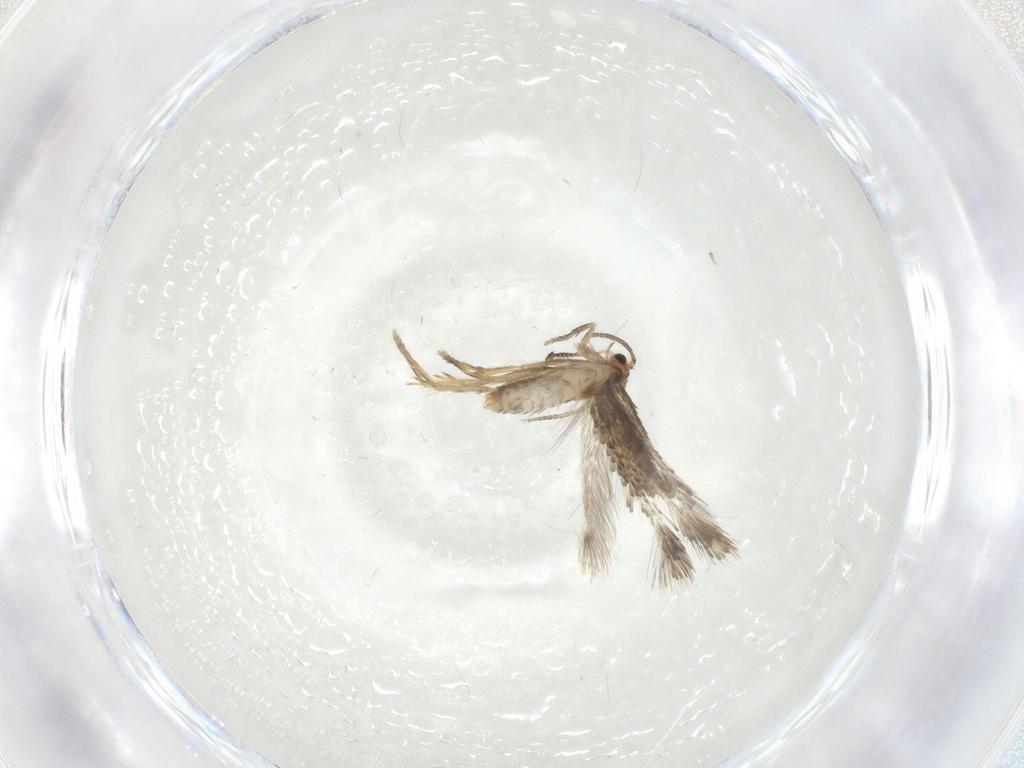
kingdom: Animalia
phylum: Arthropoda
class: Insecta
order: Lepidoptera
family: Nepticulidae
